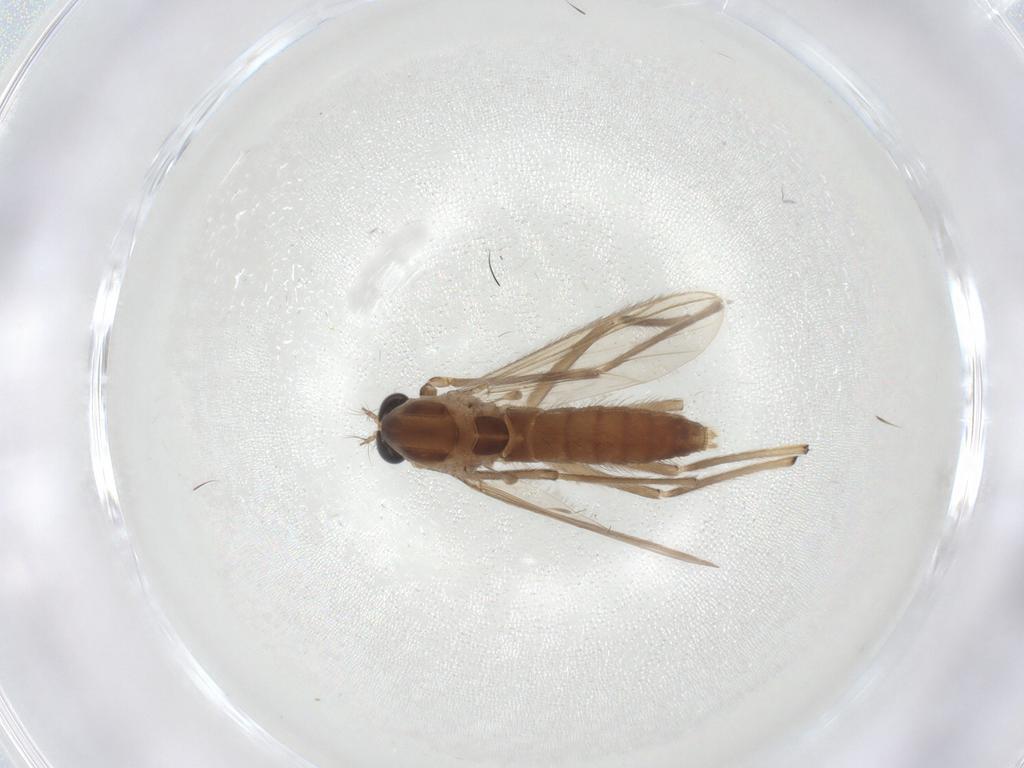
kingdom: Animalia
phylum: Arthropoda
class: Insecta
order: Diptera
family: Chironomidae
